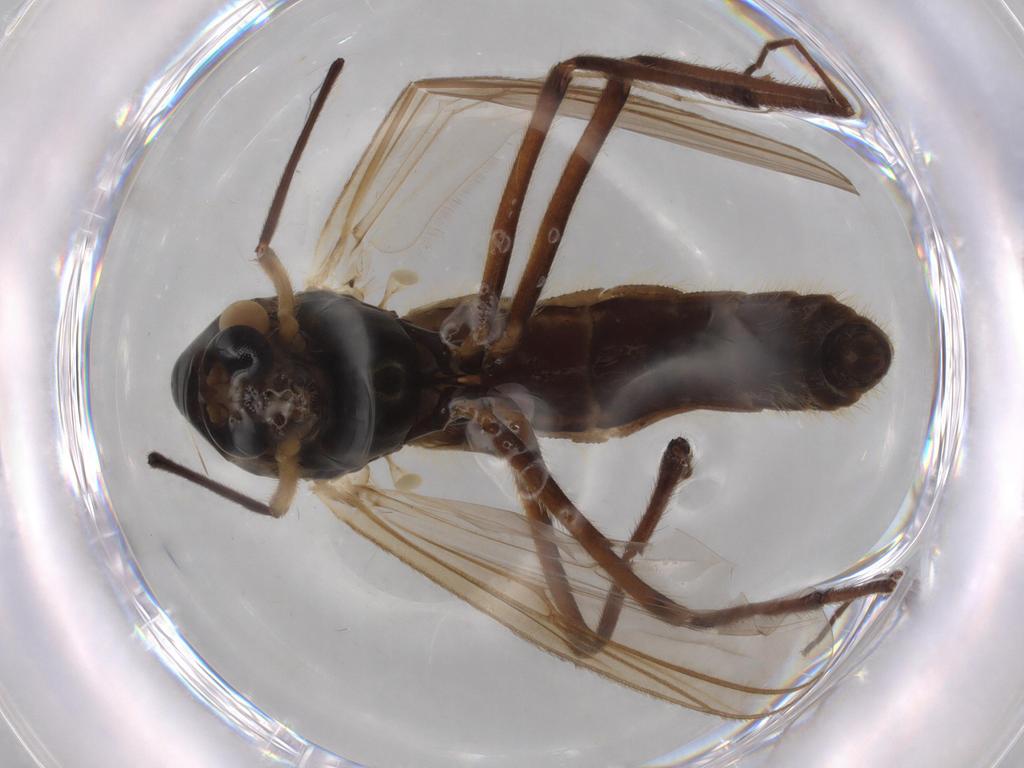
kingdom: Animalia
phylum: Arthropoda
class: Insecta
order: Diptera
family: Chironomidae
